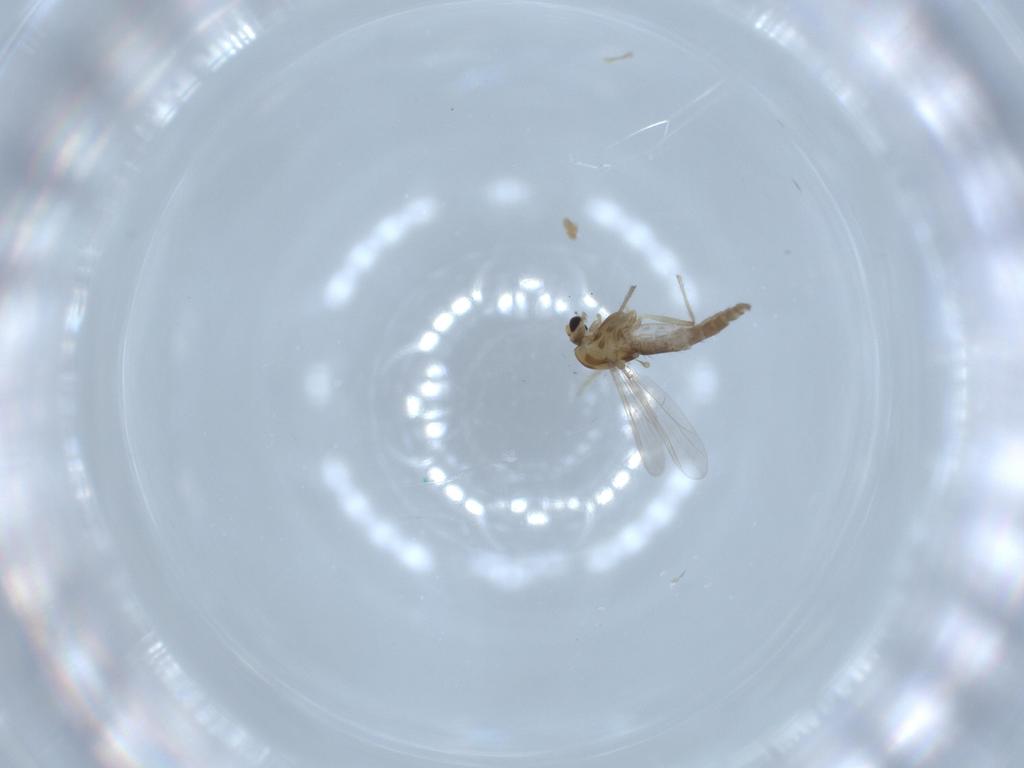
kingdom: Animalia
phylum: Arthropoda
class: Insecta
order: Diptera
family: Chironomidae
